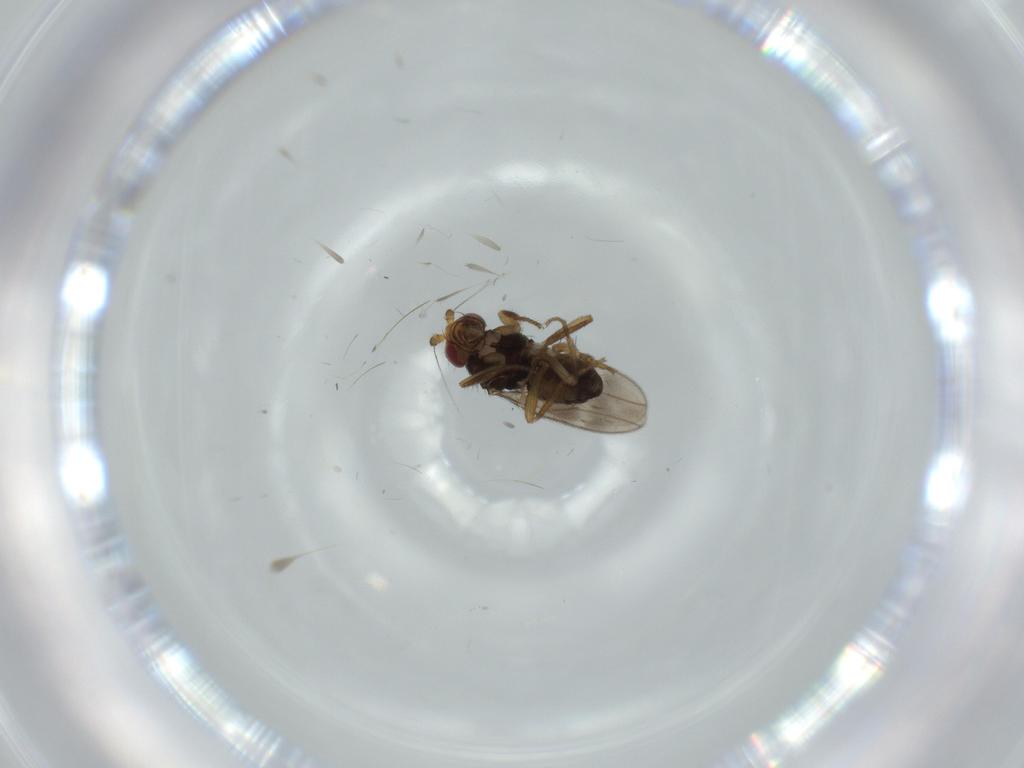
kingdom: Animalia
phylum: Arthropoda
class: Insecta
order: Diptera
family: Sphaeroceridae
